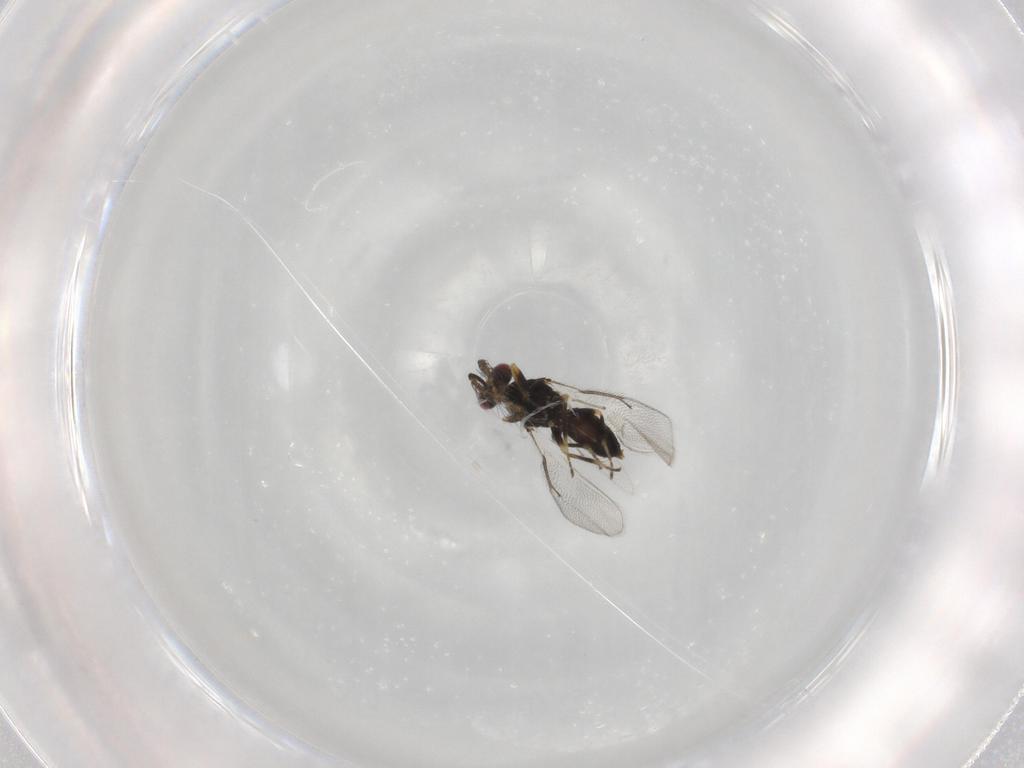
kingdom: Animalia
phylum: Arthropoda
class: Insecta
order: Hymenoptera
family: Eulophidae
